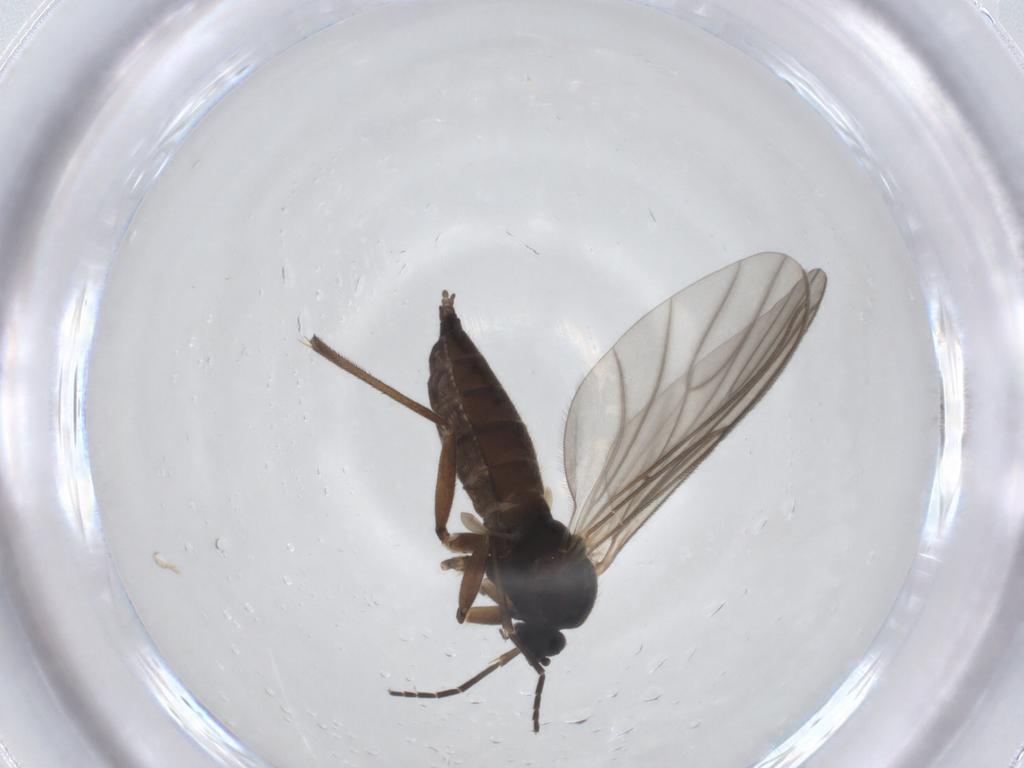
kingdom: Animalia
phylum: Arthropoda
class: Insecta
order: Diptera
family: Sciaridae
